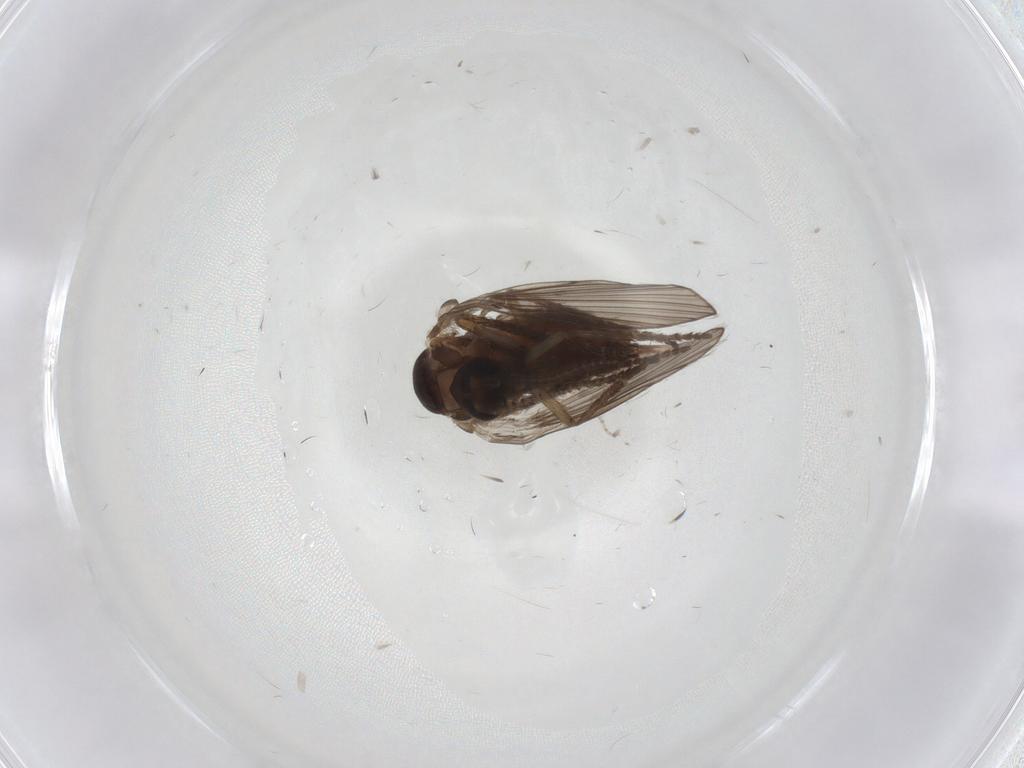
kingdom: Animalia
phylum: Arthropoda
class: Insecta
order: Diptera
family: Psychodidae
